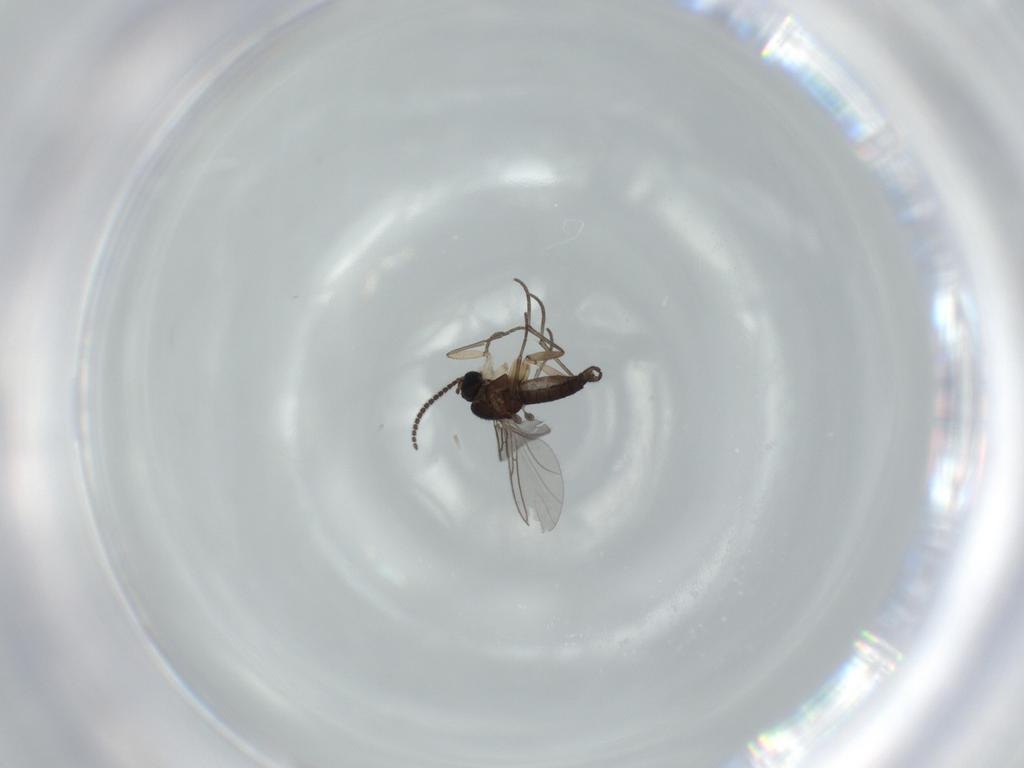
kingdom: Animalia
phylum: Arthropoda
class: Insecta
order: Diptera
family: Sciaridae
